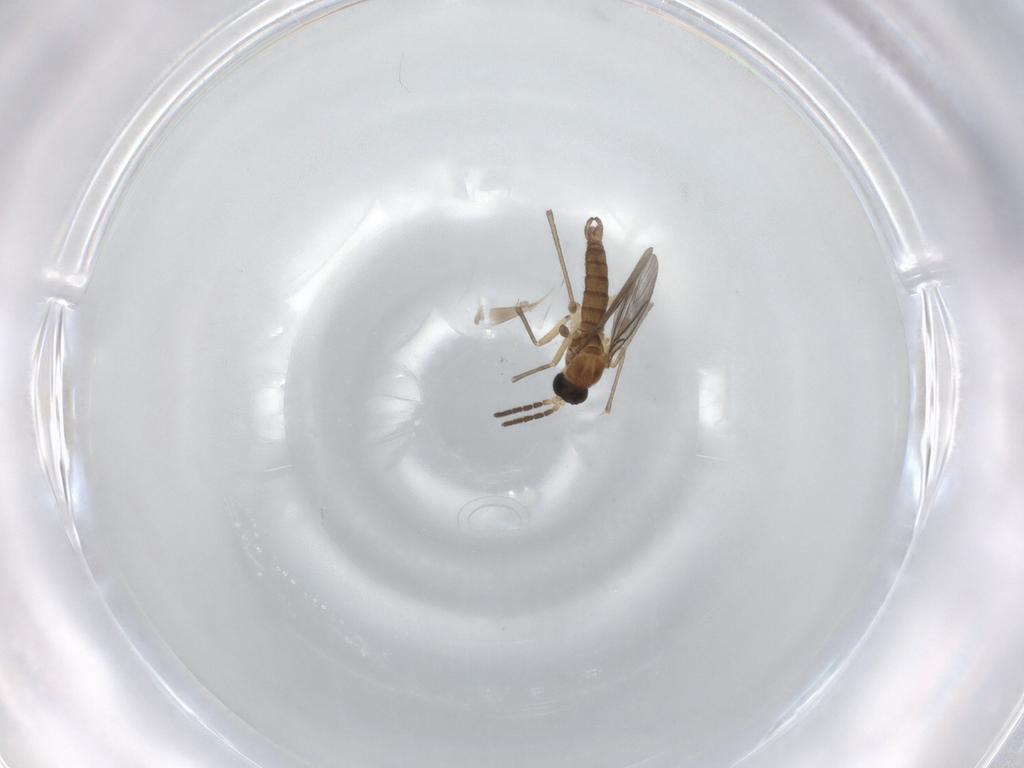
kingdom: Animalia
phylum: Arthropoda
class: Insecta
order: Diptera
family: Sciaridae
